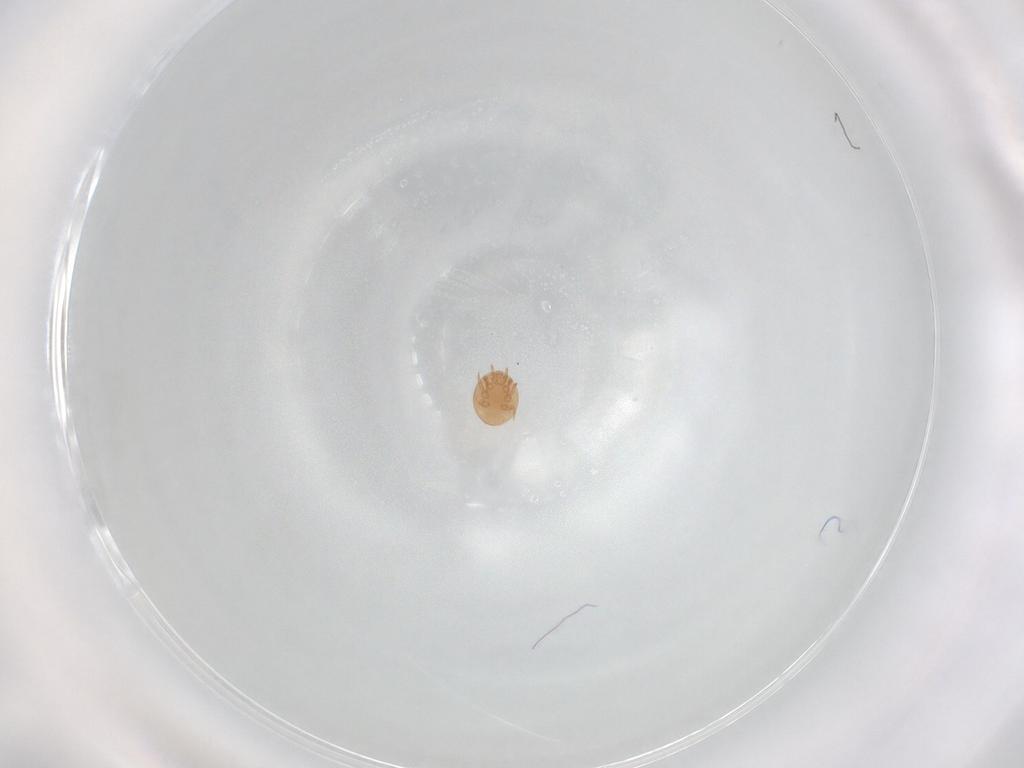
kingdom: Animalia
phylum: Arthropoda
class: Arachnida
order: Mesostigmata
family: Trematuridae
